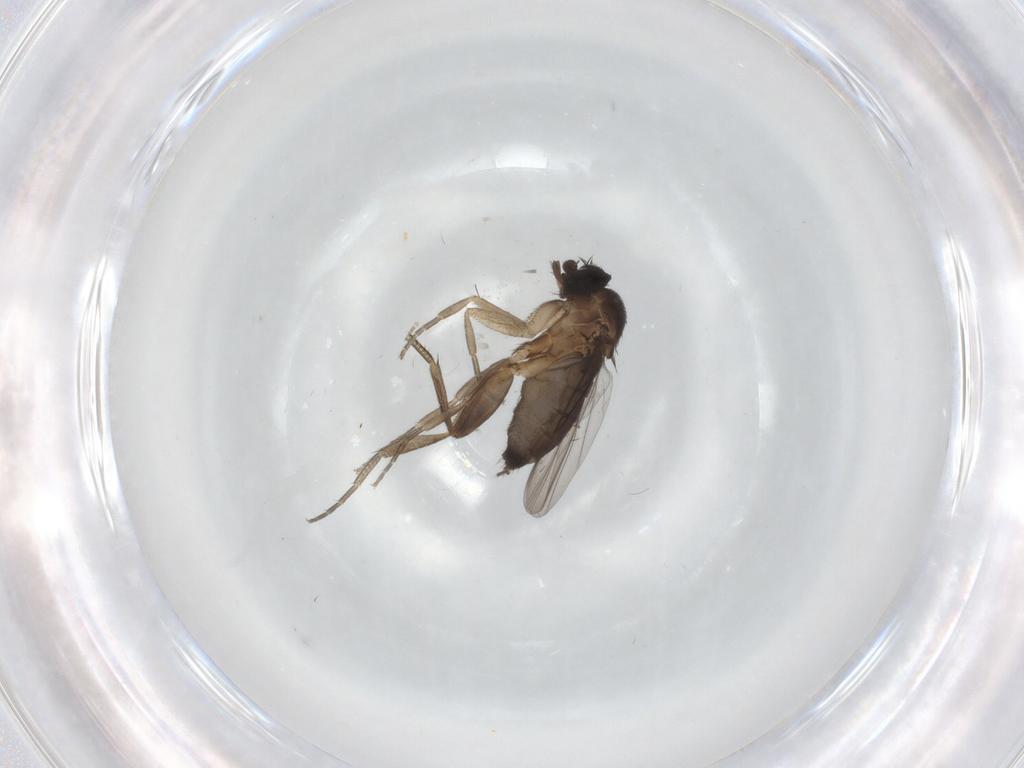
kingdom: Animalia
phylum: Arthropoda
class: Insecta
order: Diptera
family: Phoridae
